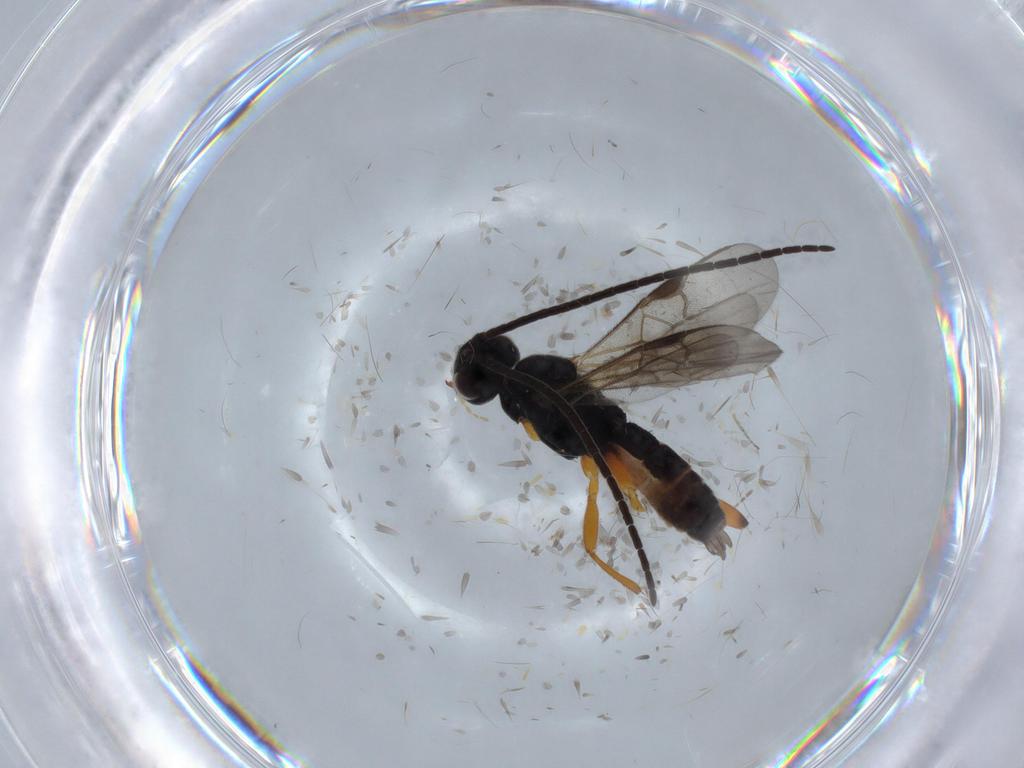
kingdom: Animalia
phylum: Arthropoda
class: Insecta
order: Hymenoptera
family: Braconidae
